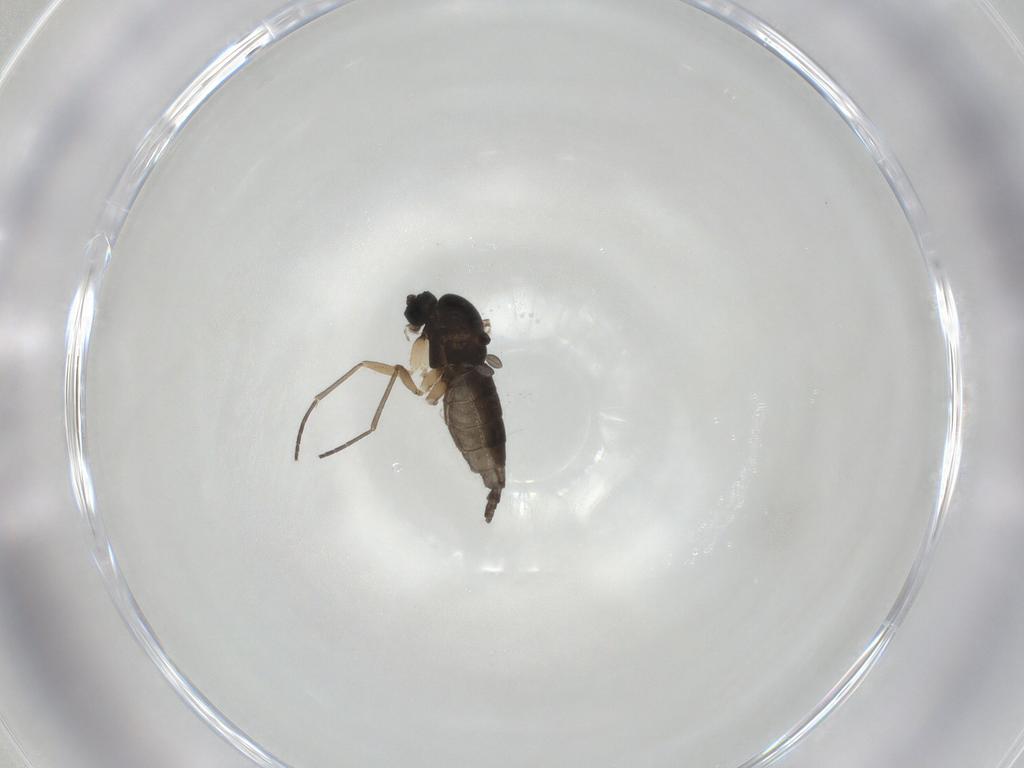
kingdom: Animalia
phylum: Arthropoda
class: Insecta
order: Diptera
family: Sciaridae
